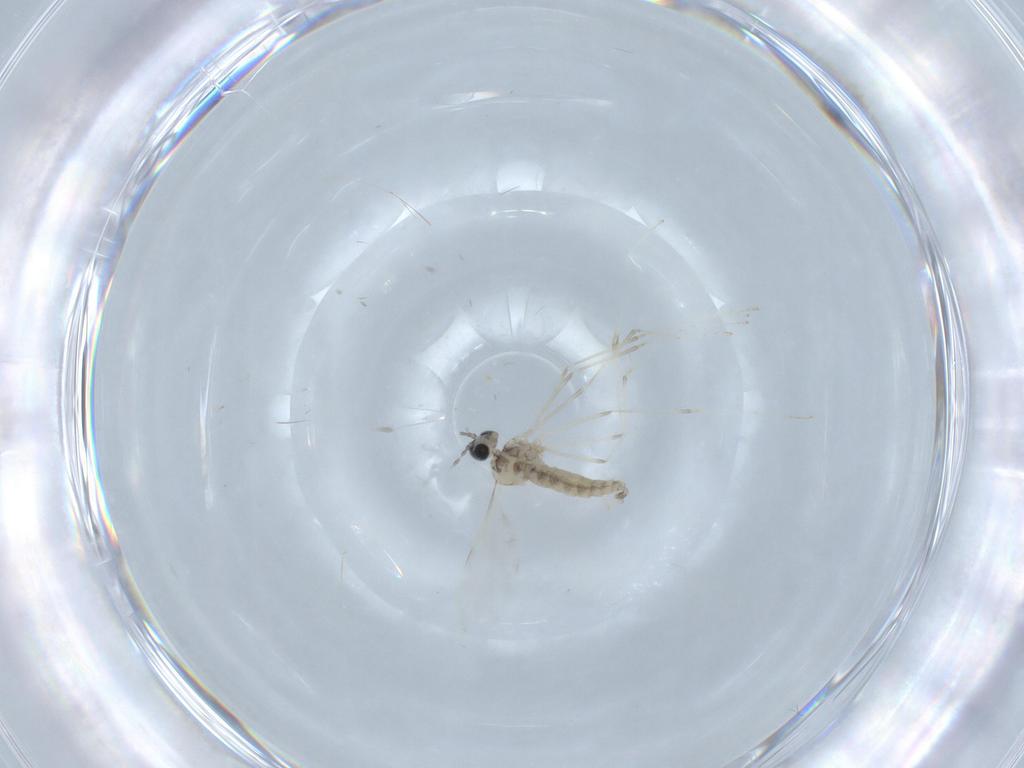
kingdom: Animalia
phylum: Arthropoda
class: Insecta
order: Diptera
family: Cecidomyiidae
